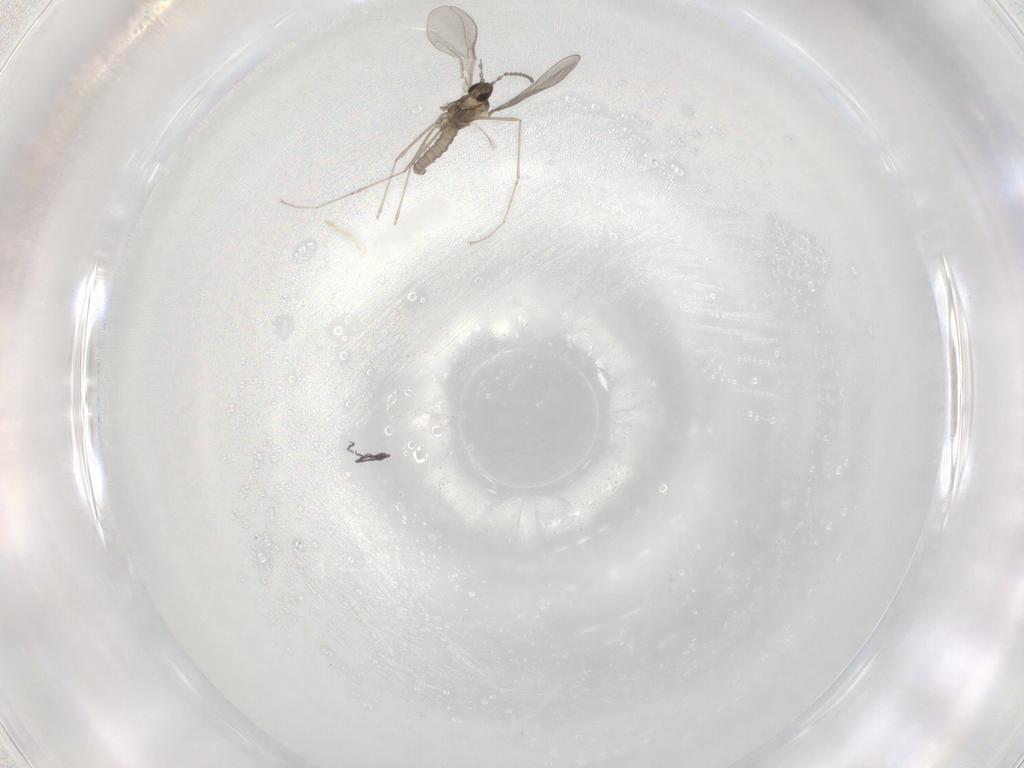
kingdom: Animalia
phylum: Arthropoda
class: Insecta
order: Diptera
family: Cecidomyiidae
